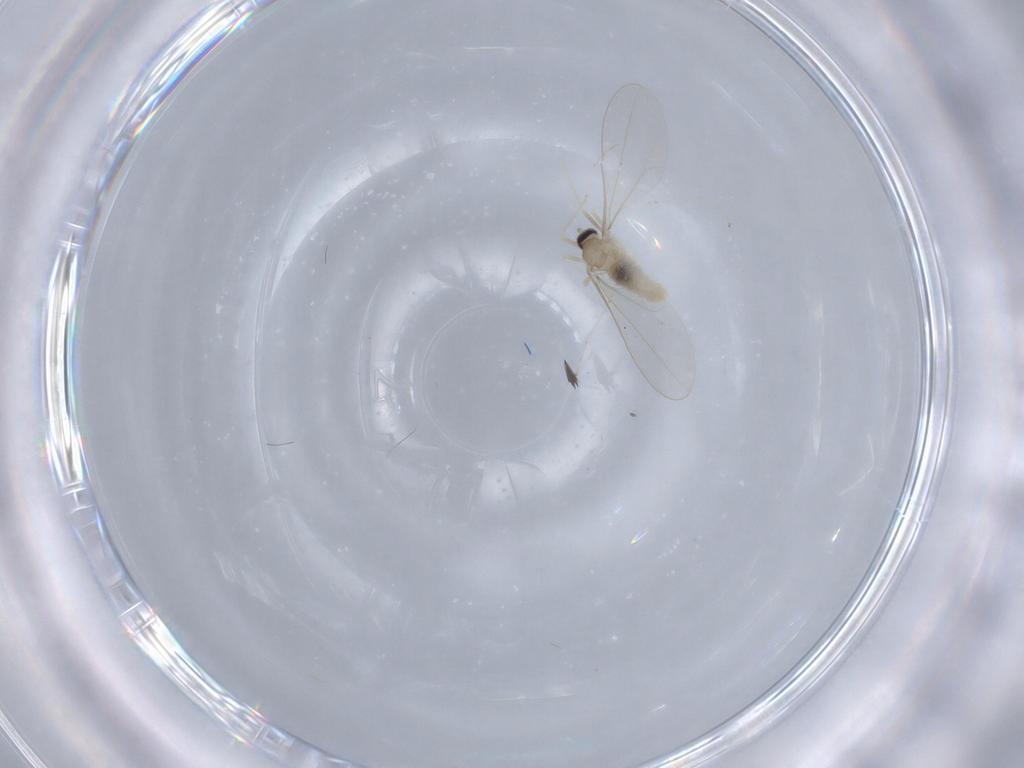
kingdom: Animalia
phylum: Arthropoda
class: Insecta
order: Diptera
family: Cecidomyiidae
